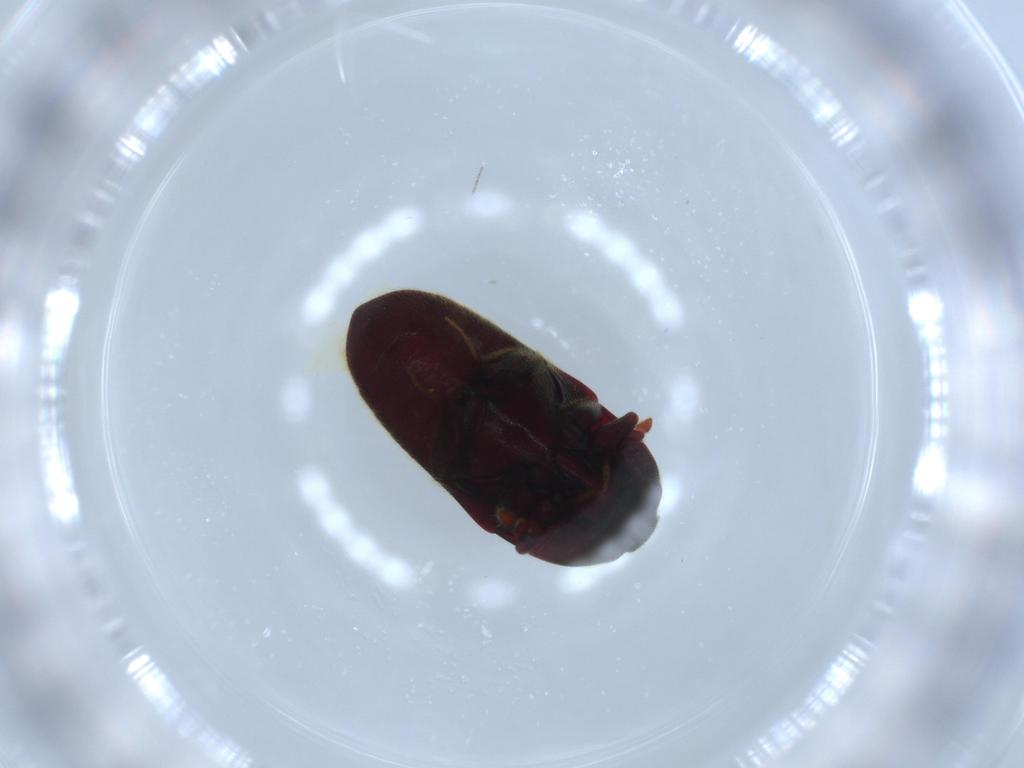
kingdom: Animalia
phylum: Arthropoda
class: Insecta
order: Coleoptera
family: Throscidae
